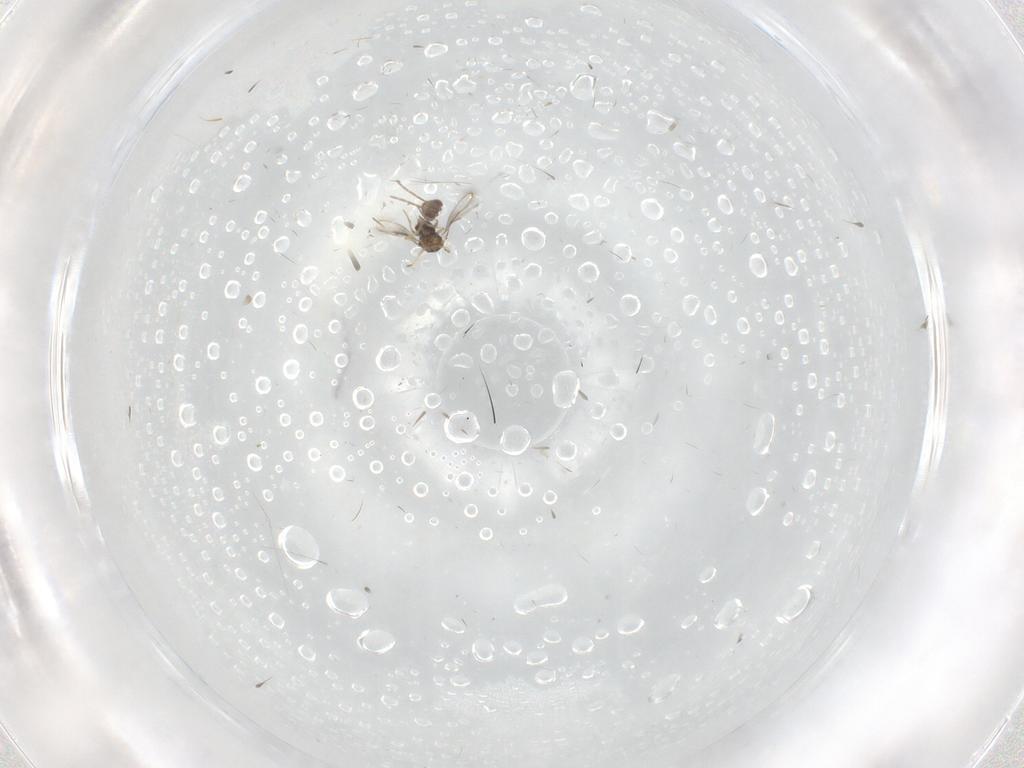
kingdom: Animalia
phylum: Arthropoda
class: Insecta
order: Hymenoptera
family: Aphelinidae
